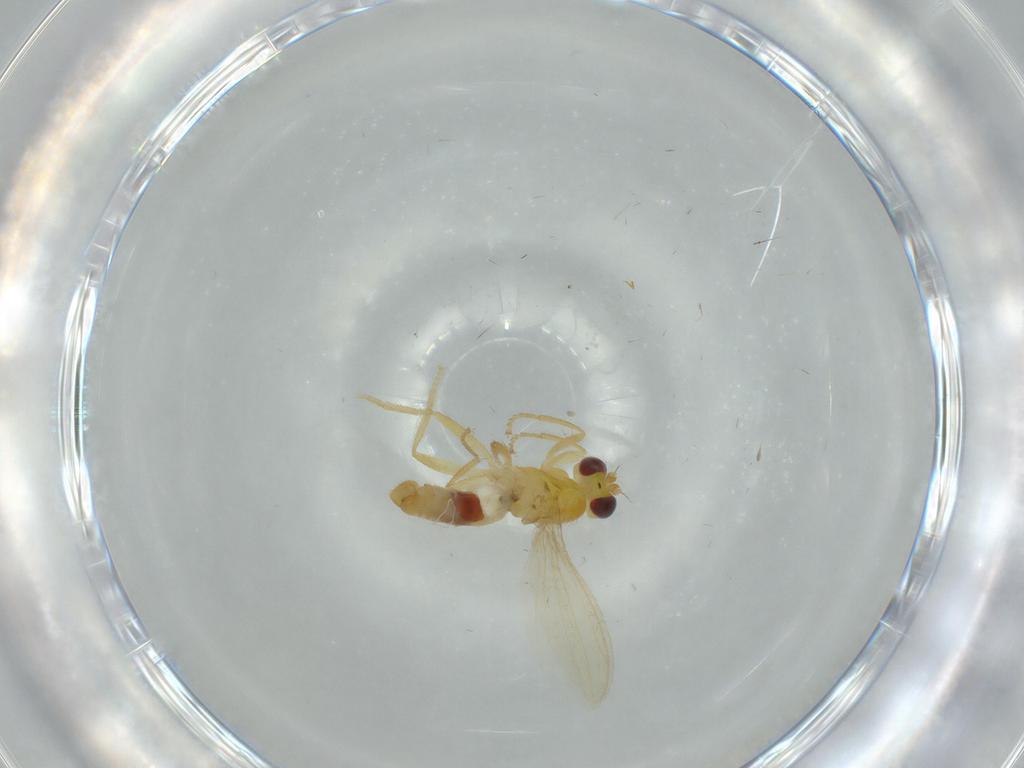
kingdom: Animalia
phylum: Arthropoda
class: Insecta
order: Diptera
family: Periscelididae
